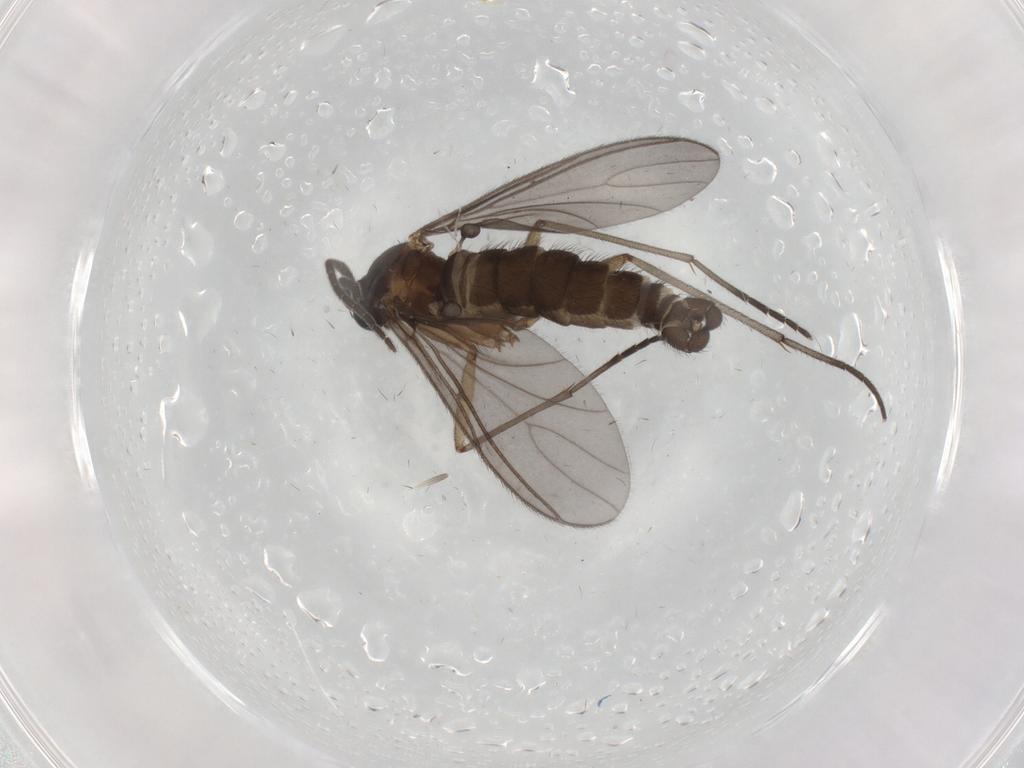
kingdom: Animalia
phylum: Arthropoda
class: Insecta
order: Diptera
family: Sciaridae
